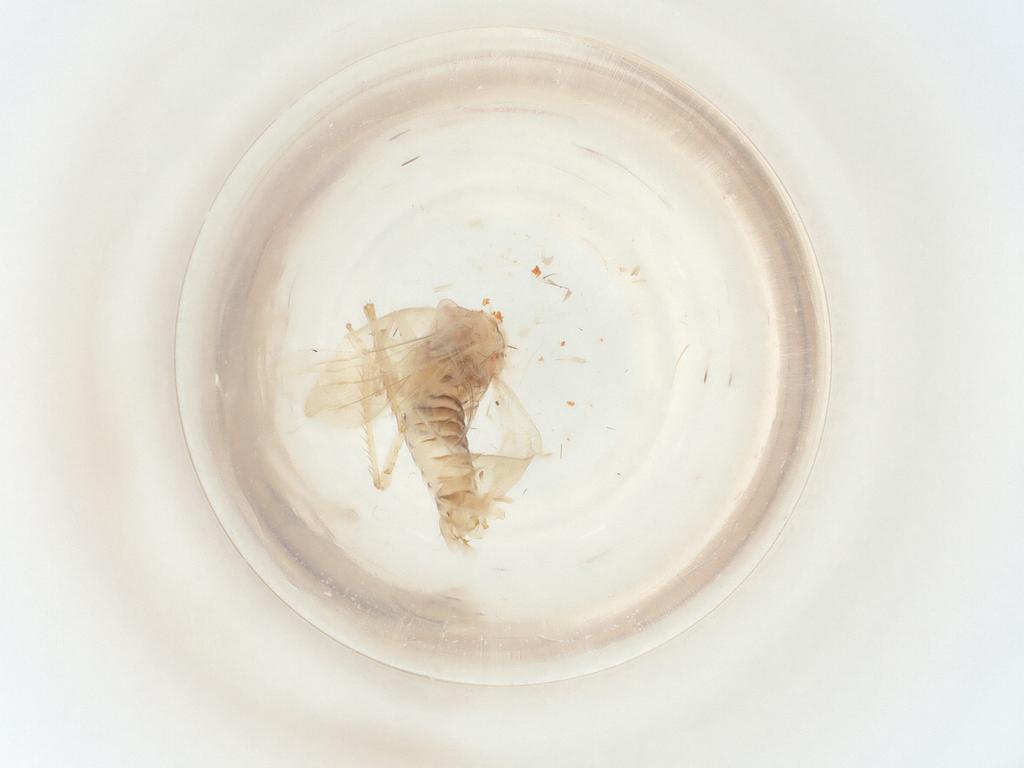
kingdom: Animalia
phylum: Arthropoda
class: Insecta
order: Hemiptera
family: Cicadellidae
